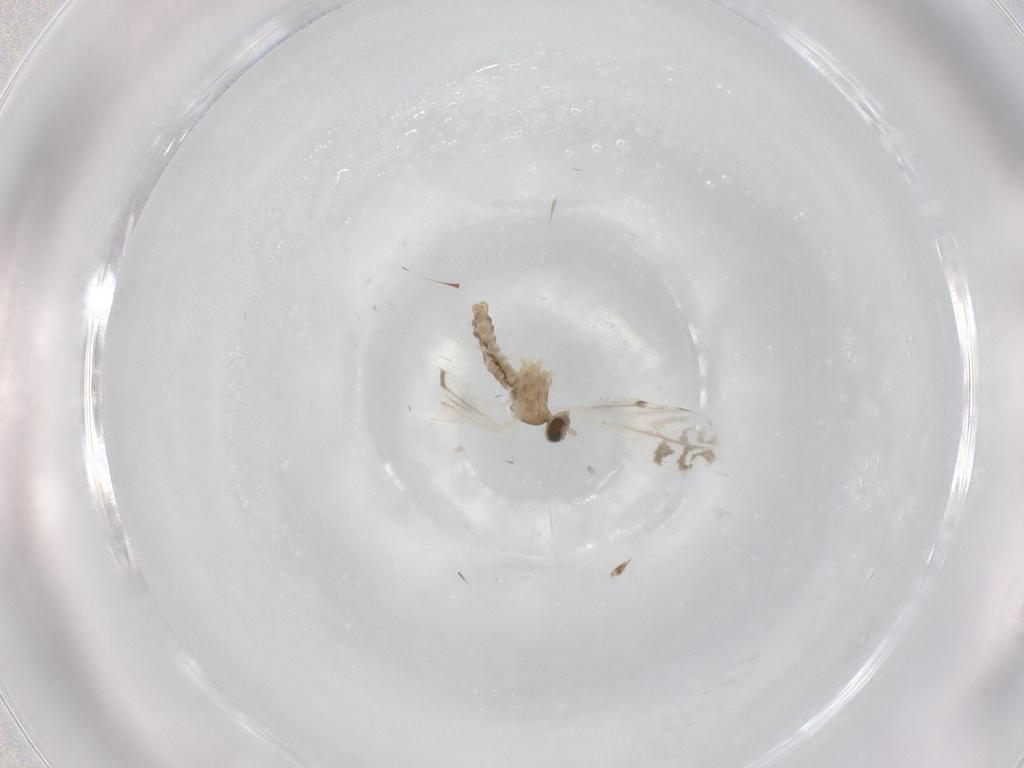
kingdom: Animalia
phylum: Arthropoda
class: Insecta
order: Diptera
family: Cecidomyiidae
